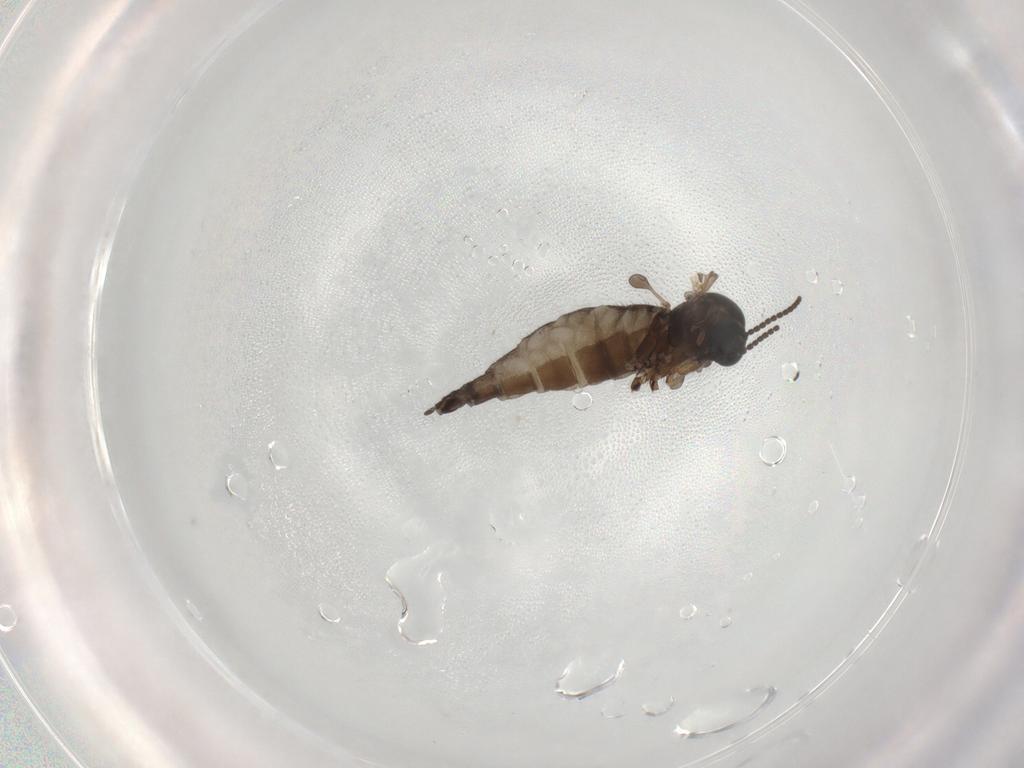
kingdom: Animalia
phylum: Arthropoda
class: Insecta
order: Diptera
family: Sciaridae
